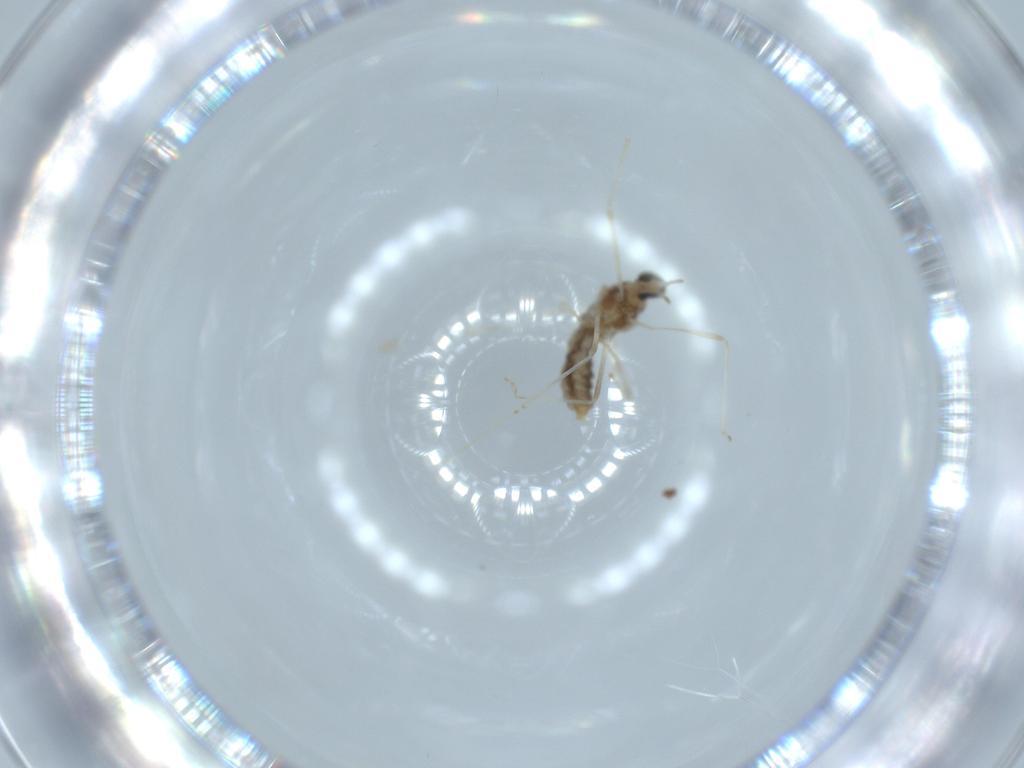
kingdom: Animalia
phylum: Arthropoda
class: Insecta
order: Diptera
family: Cecidomyiidae
